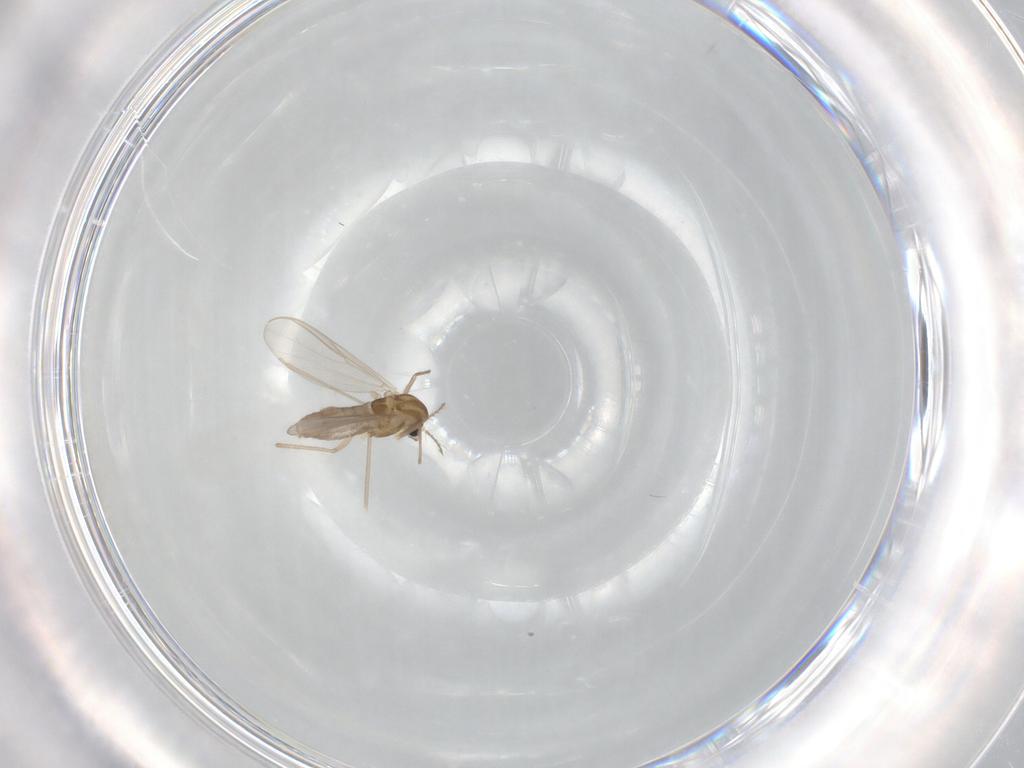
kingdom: Animalia
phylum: Arthropoda
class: Insecta
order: Diptera
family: Chironomidae
